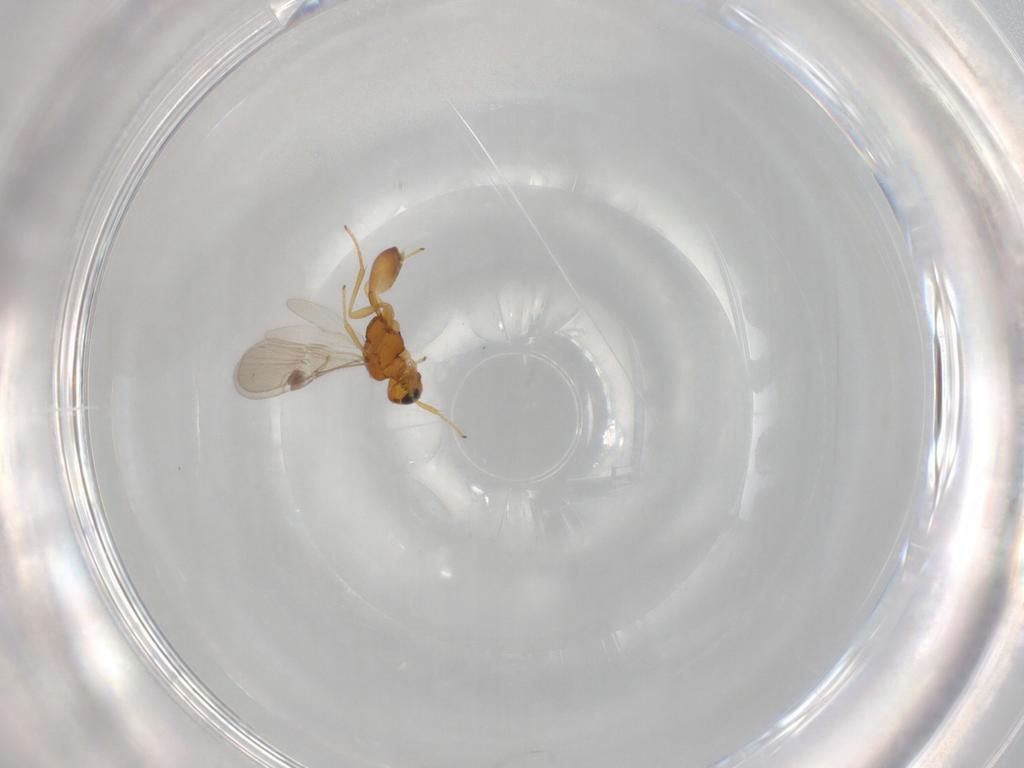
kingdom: Animalia
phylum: Arthropoda
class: Insecta
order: Hymenoptera
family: Braconidae
